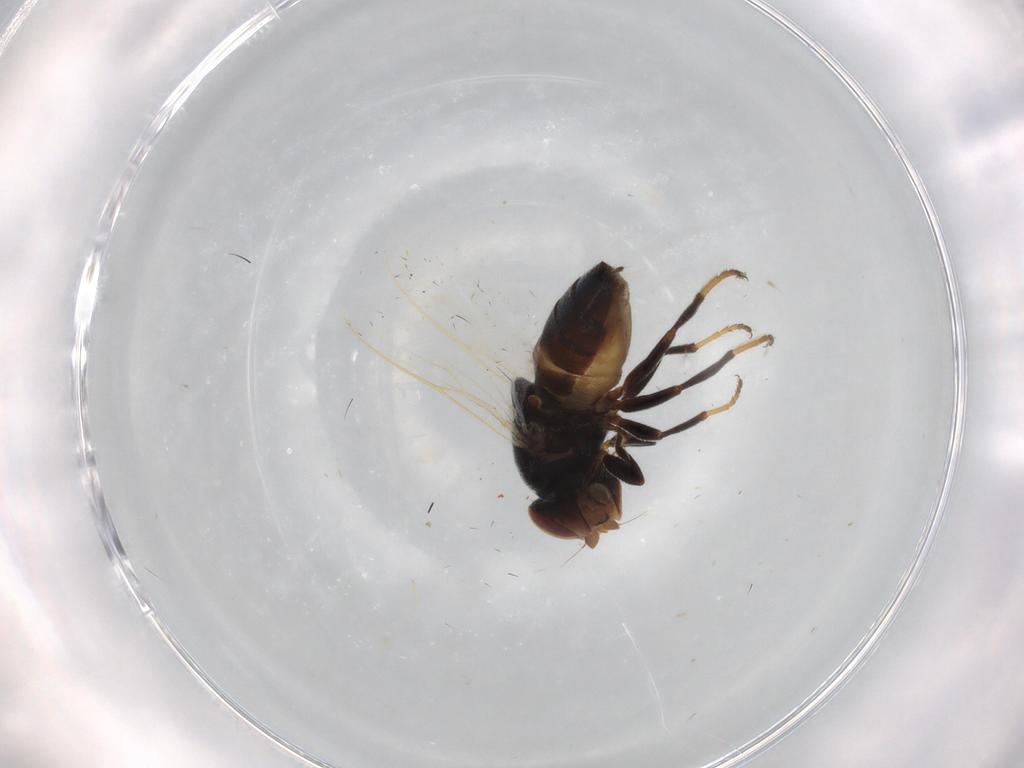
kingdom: Animalia
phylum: Arthropoda
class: Insecta
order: Diptera
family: Chloropidae
